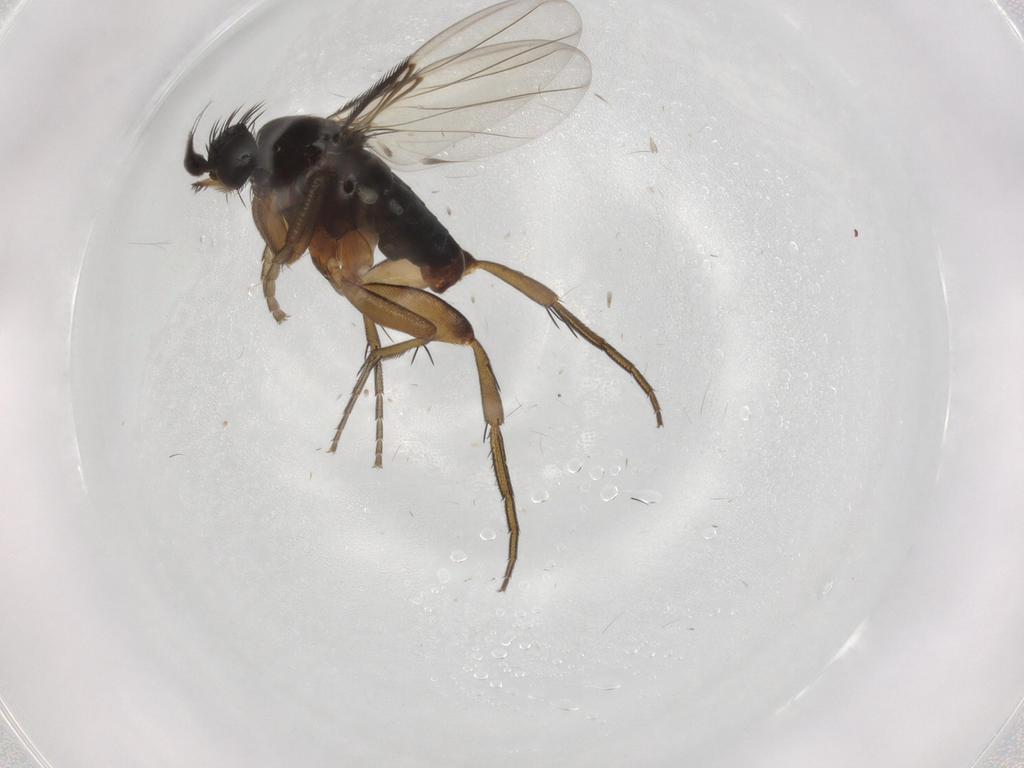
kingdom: Animalia
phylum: Arthropoda
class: Insecta
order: Diptera
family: Phoridae
